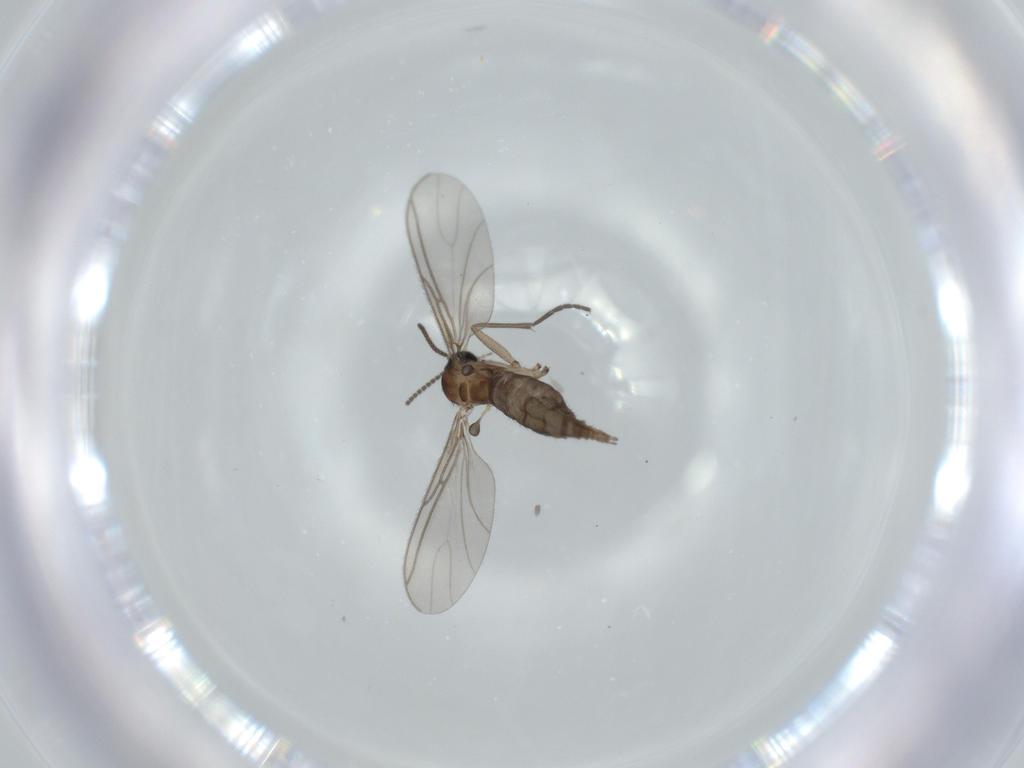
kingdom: Animalia
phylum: Arthropoda
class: Insecta
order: Diptera
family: Sciaridae
